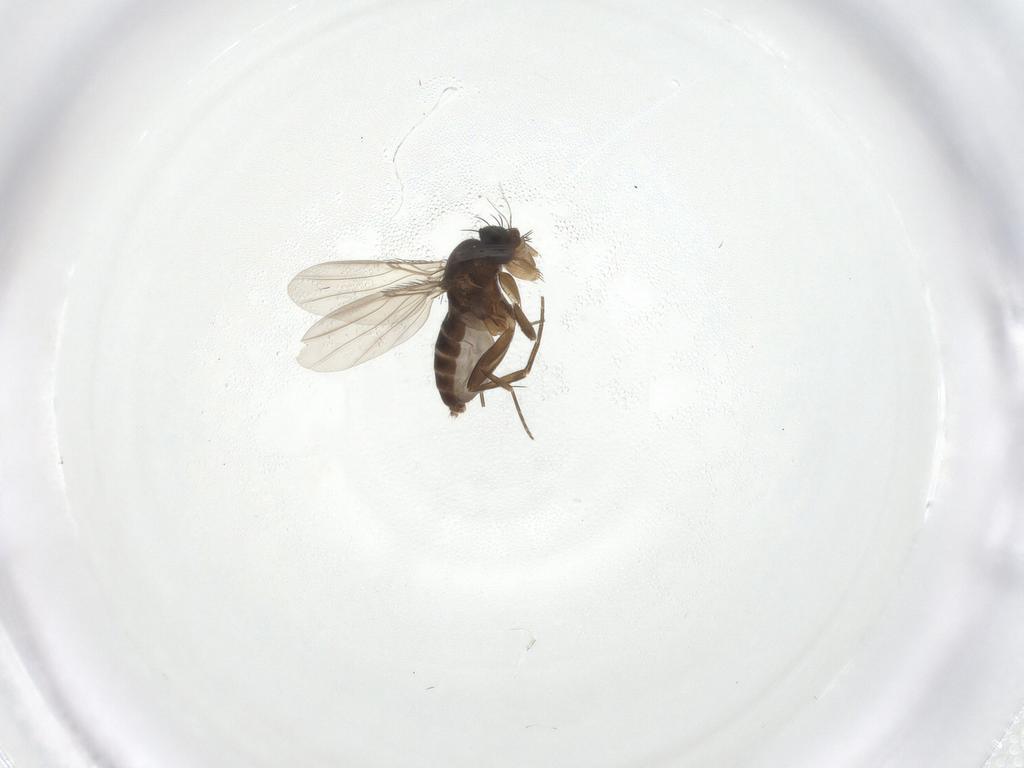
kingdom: Animalia
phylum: Arthropoda
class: Insecta
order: Diptera
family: Phoridae
